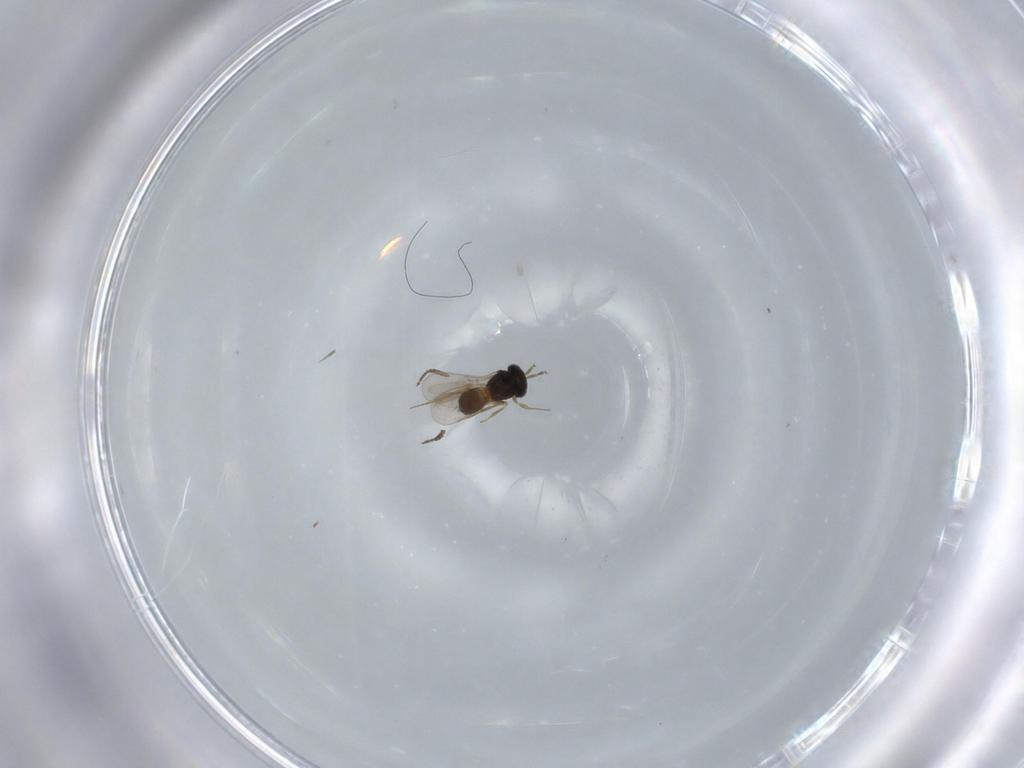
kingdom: Animalia
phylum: Arthropoda
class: Insecta
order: Hymenoptera
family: Scelionidae
